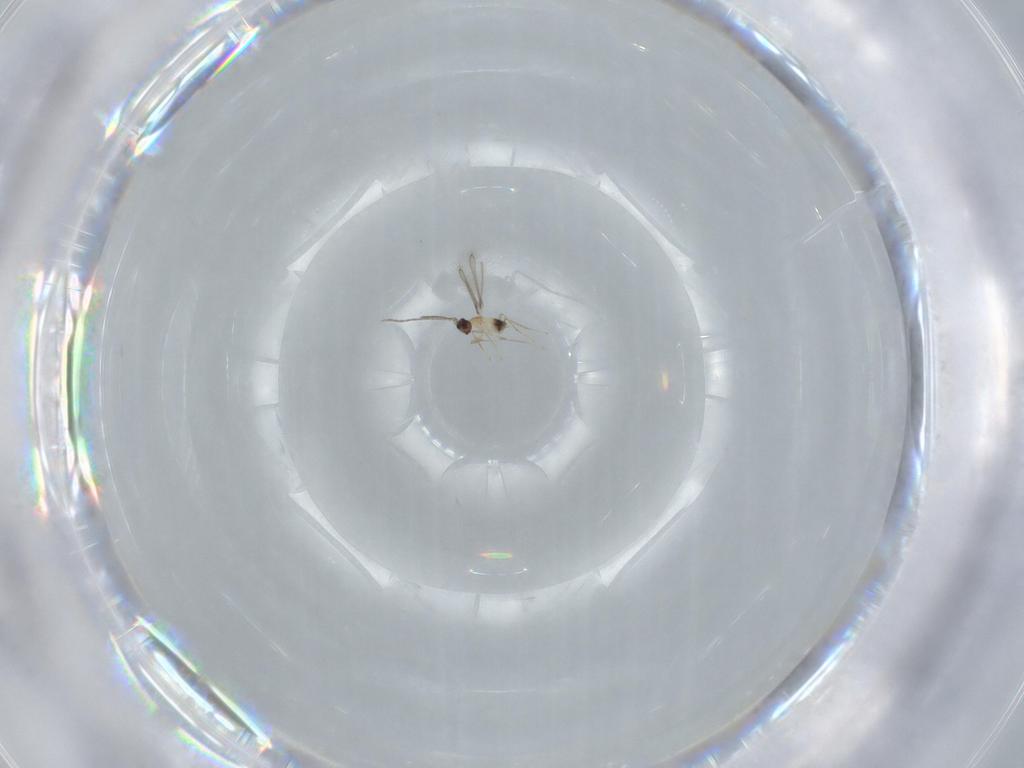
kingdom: Animalia
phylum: Arthropoda
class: Insecta
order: Hymenoptera
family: Mymaridae
